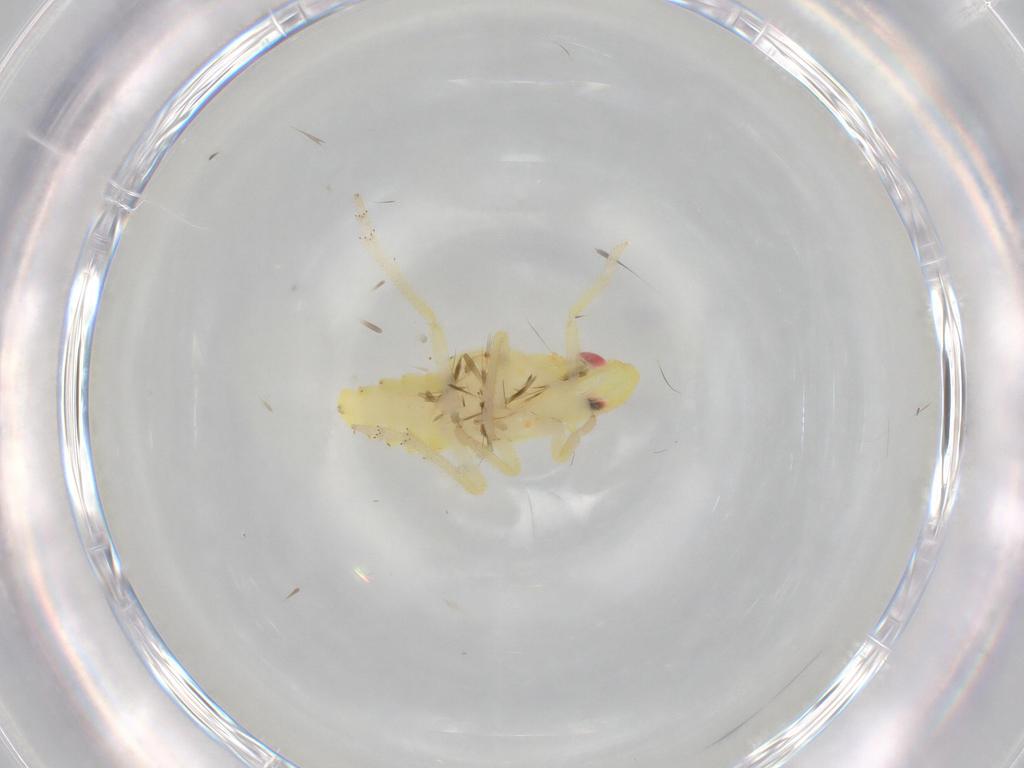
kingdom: Animalia
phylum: Arthropoda
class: Insecta
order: Hemiptera
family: Tropiduchidae
